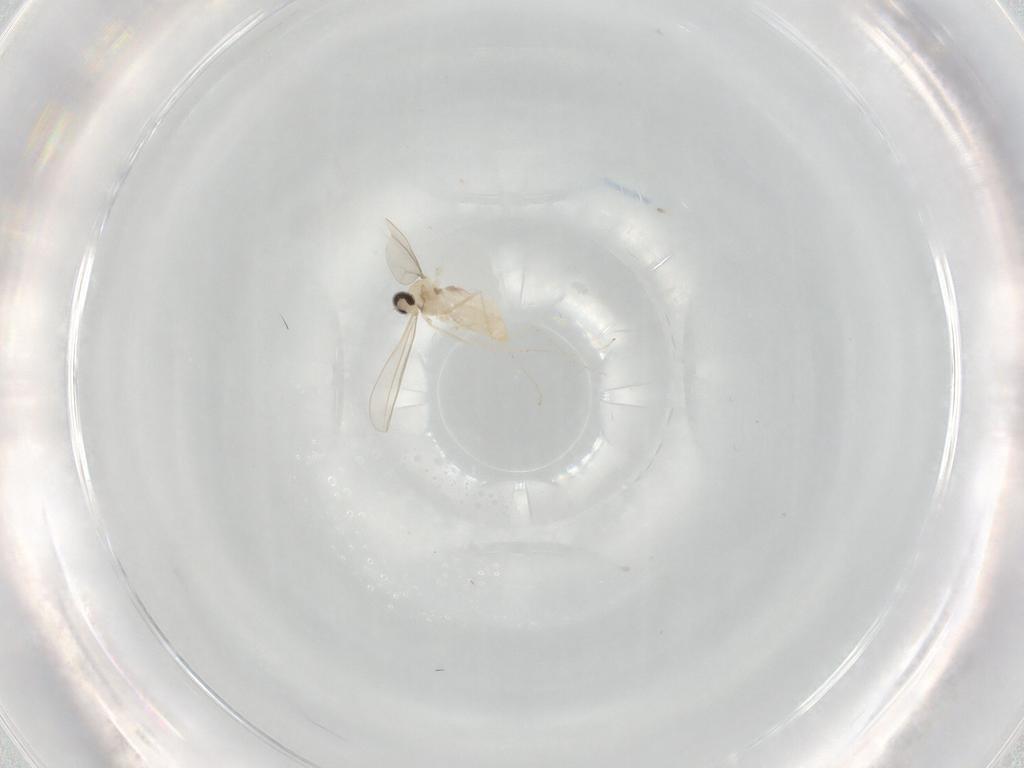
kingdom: Animalia
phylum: Arthropoda
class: Insecta
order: Diptera
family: Cecidomyiidae
